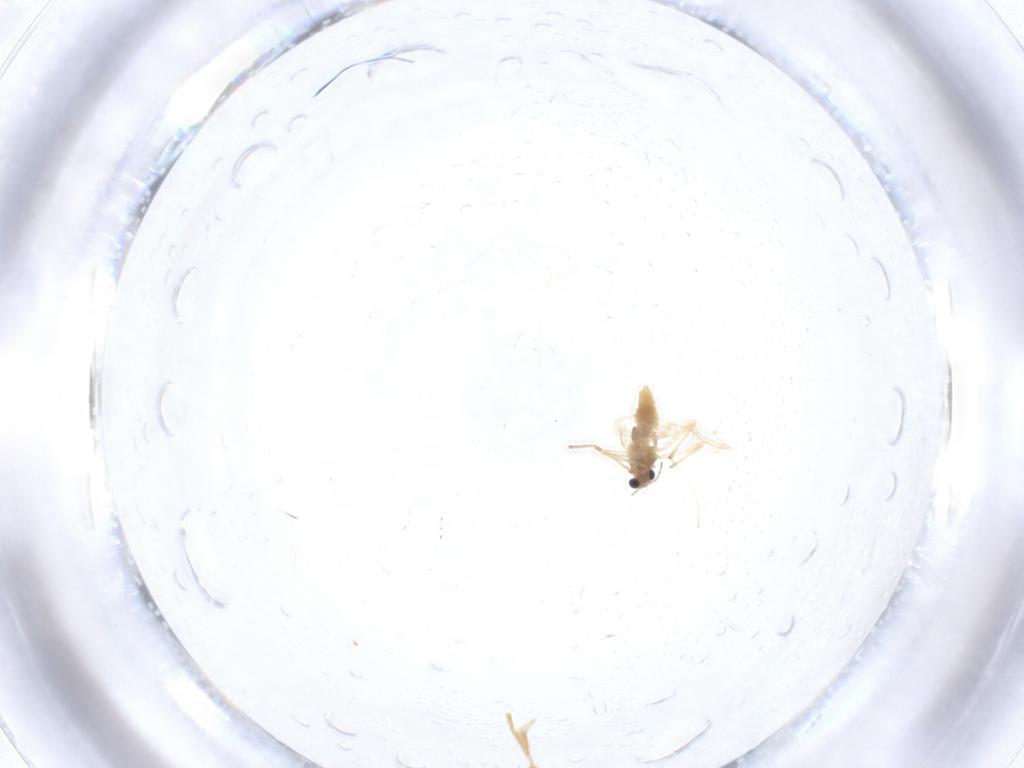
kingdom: Animalia
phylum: Arthropoda
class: Insecta
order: Diptera
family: Chironomidae
